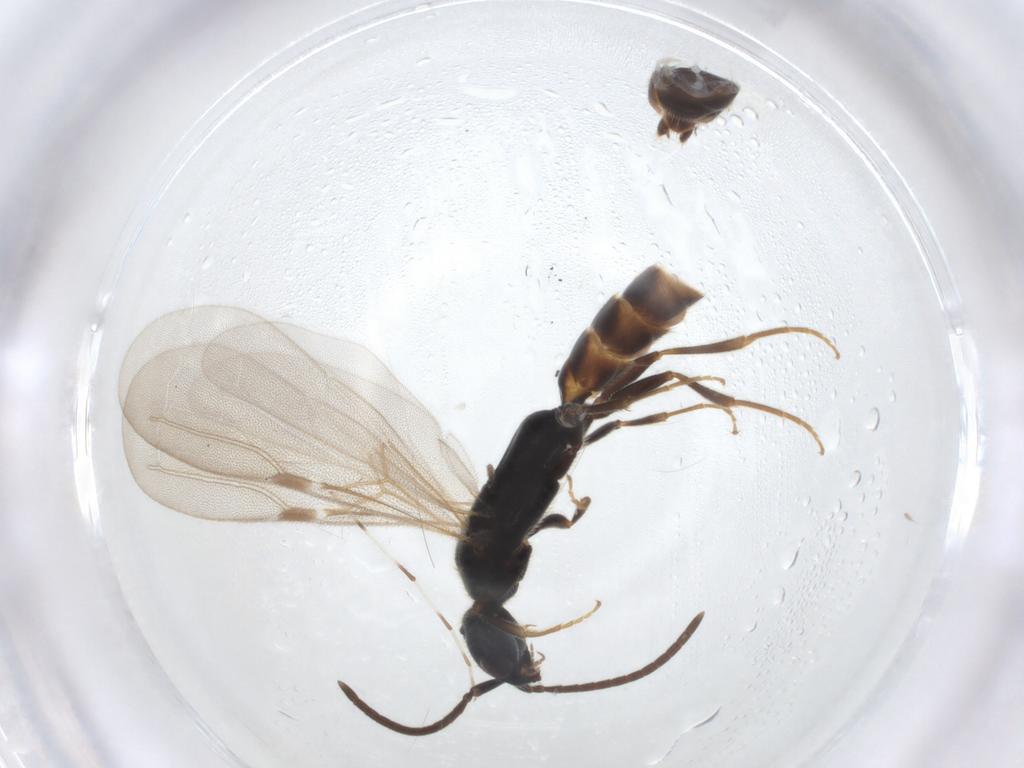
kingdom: Animalia
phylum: Arthropoda
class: Insecta
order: Hymenoptera
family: Bethylidae
